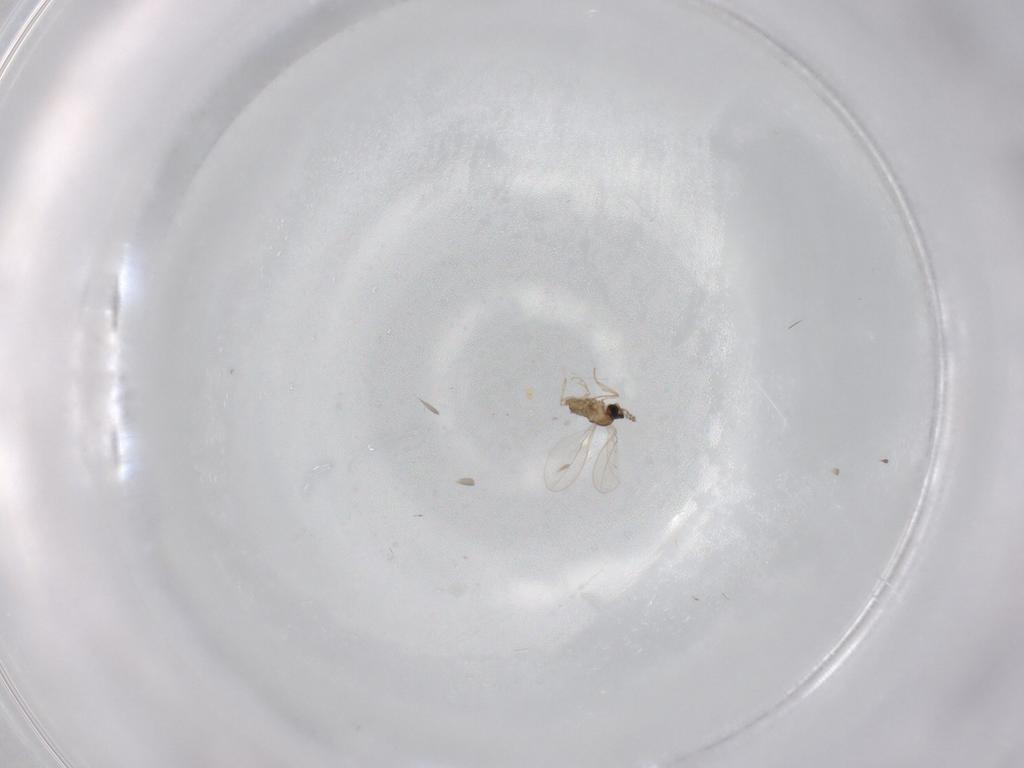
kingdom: Animalia
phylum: Arthropoda
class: Insecta
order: Diptera
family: Cecidomyiidae
